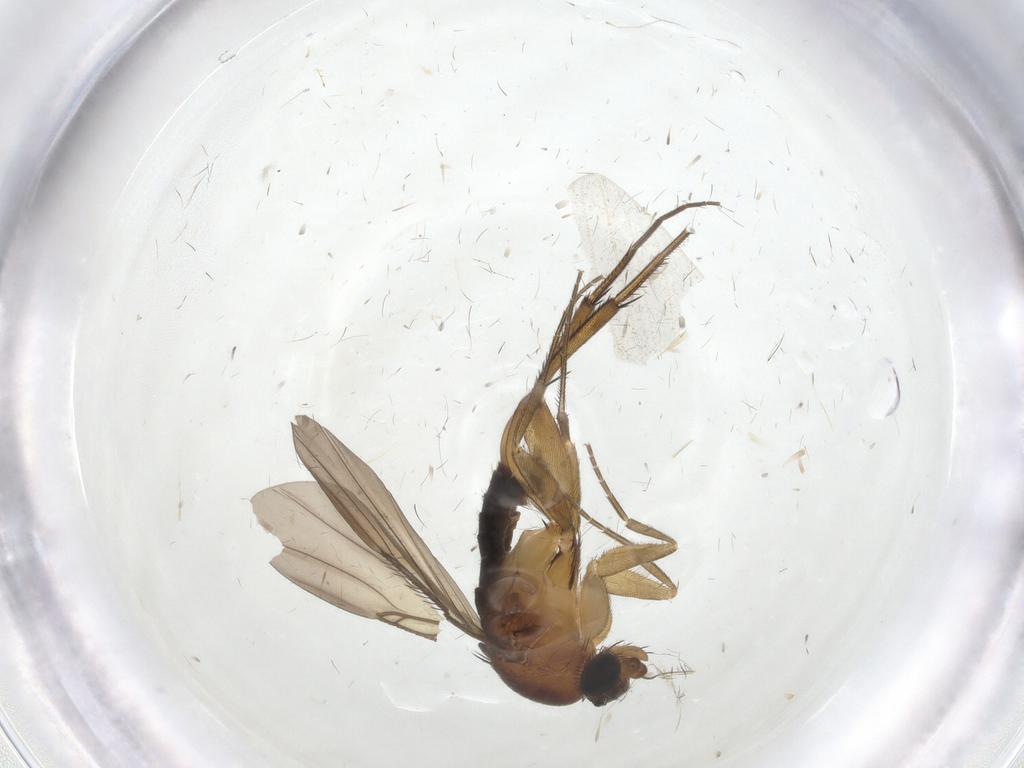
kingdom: Animalia
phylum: Arthropoda
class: Insecta
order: Diptera
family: Phoridae
